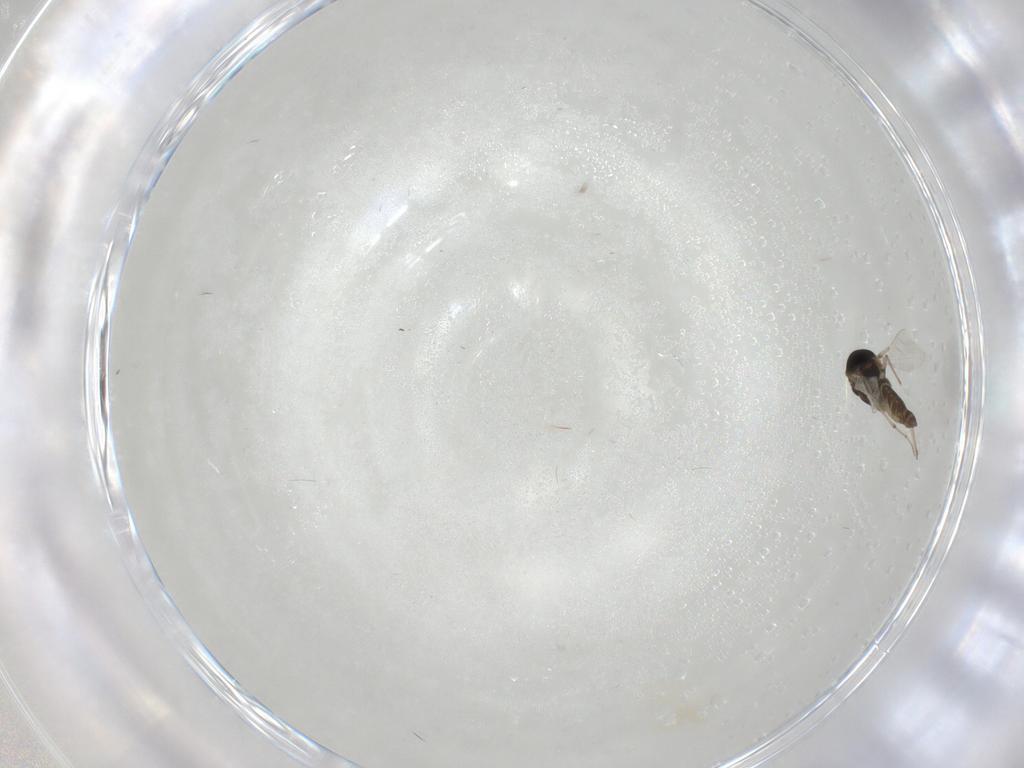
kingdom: Animalia
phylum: Arthropoda
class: Insecta
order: Diptera
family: Chironomidae
